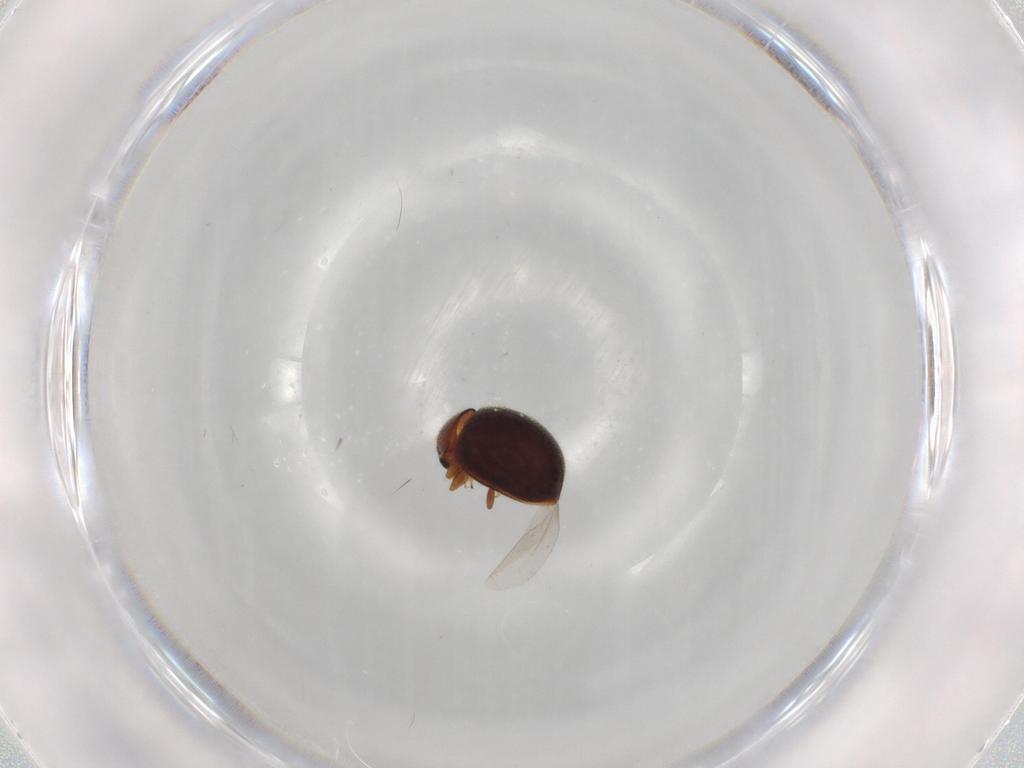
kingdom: Animalia
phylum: Arthropoda
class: Insecta
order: Coleoptera
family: Coccinellidae
